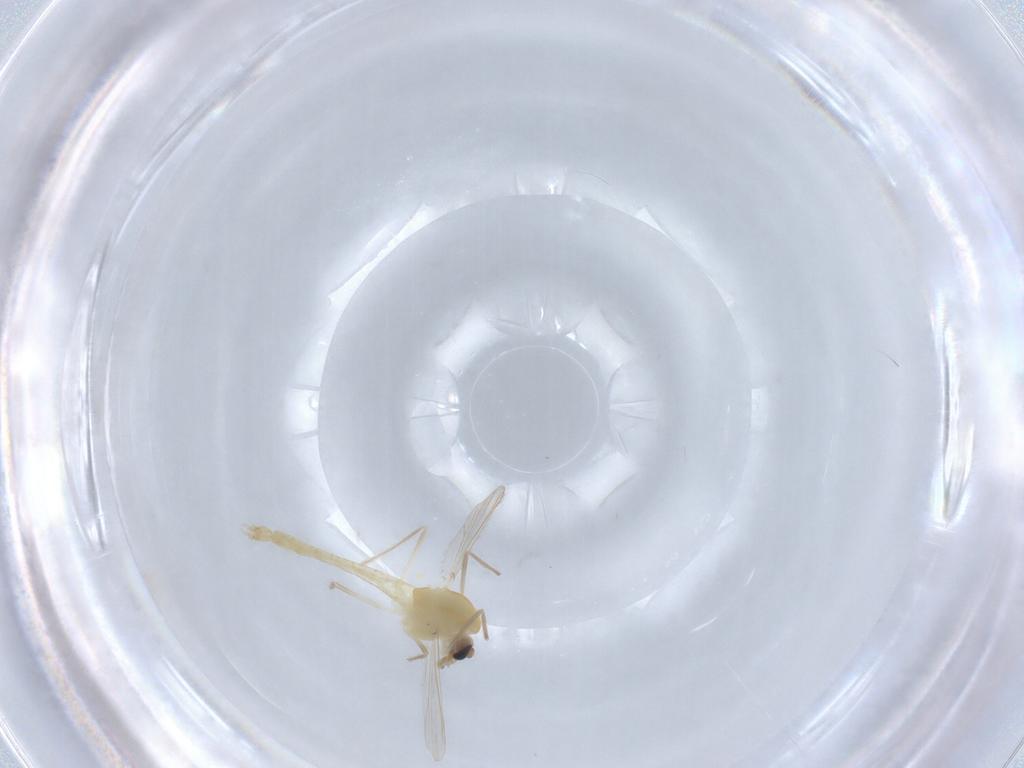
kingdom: Animalia
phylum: Arthropoda
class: Insecta
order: Diptera
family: Chironomidae
